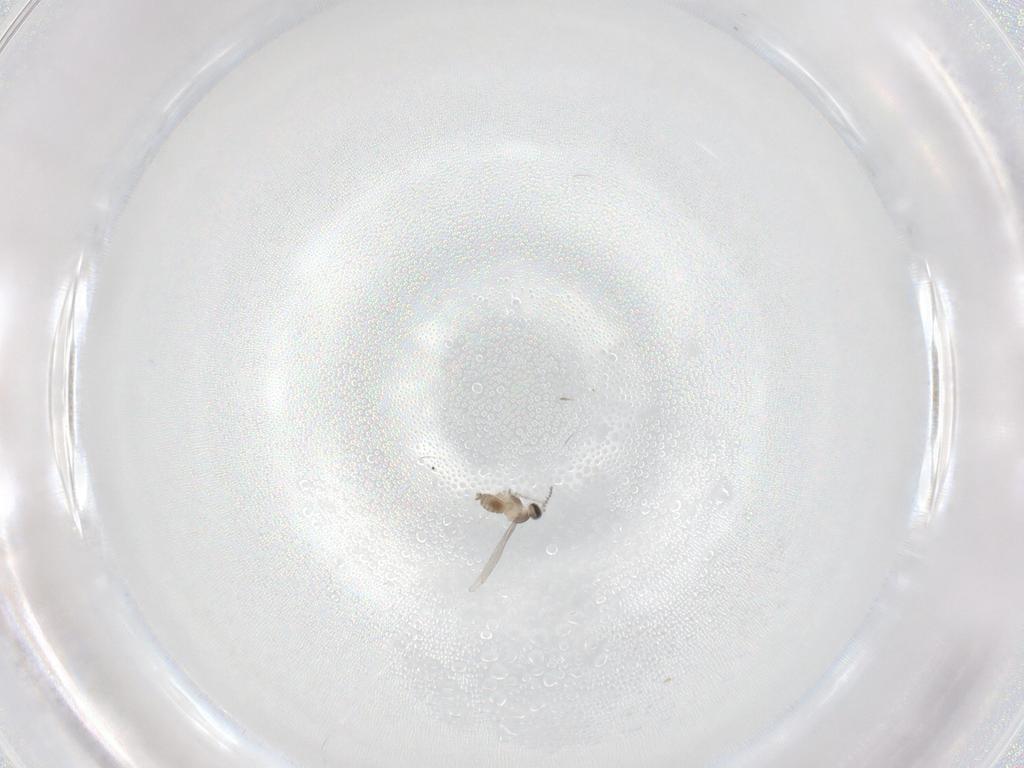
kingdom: Animalia
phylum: Arthropoda
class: Insecta
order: Diptera
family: Cecidomyiidae
